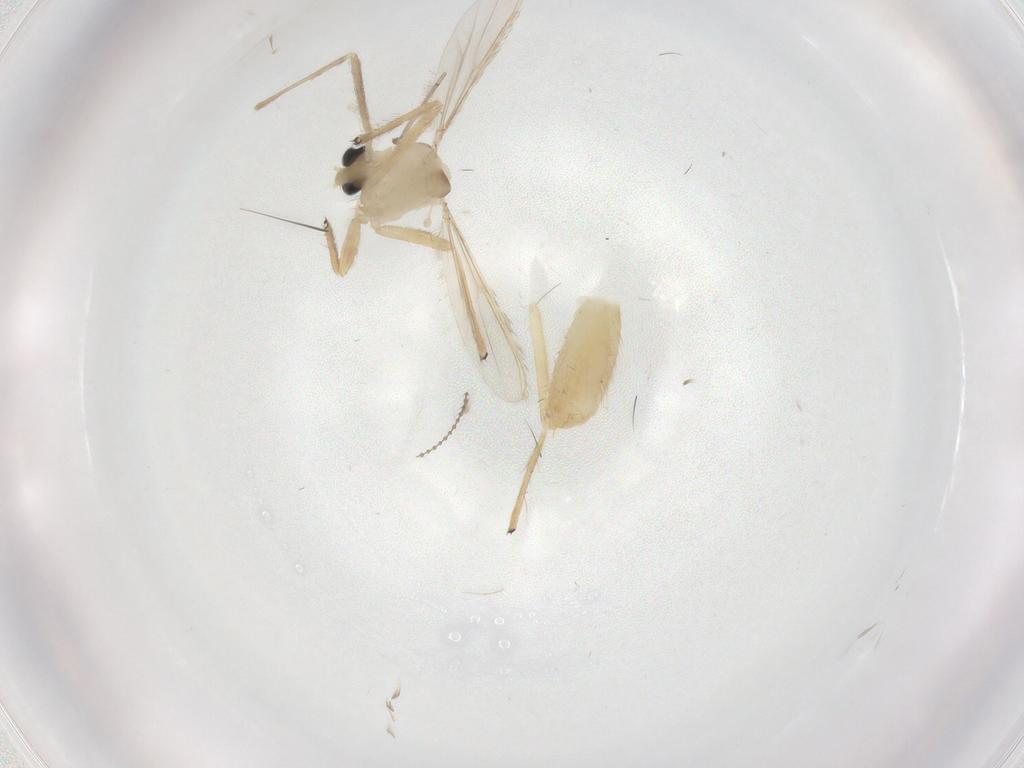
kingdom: Animalia
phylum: Arthropoda
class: Insecta
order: Diptera
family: Chironomidae
